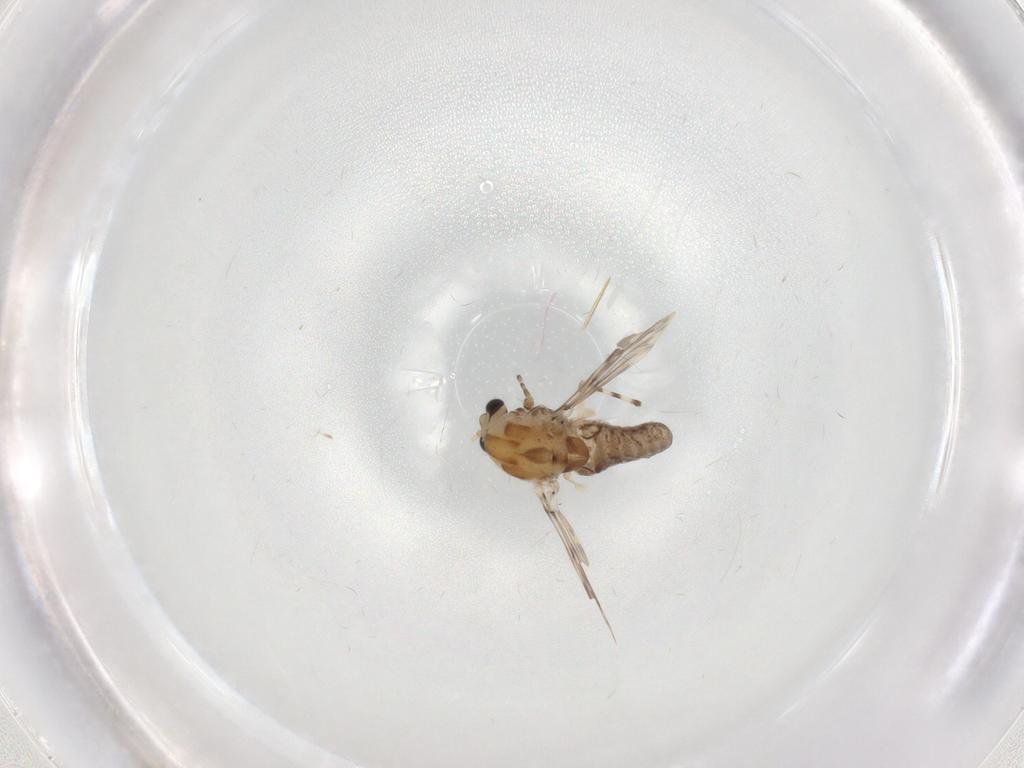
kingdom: Animalia
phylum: Arthropoda
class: Insecta
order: Diptera
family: Chironomidae
